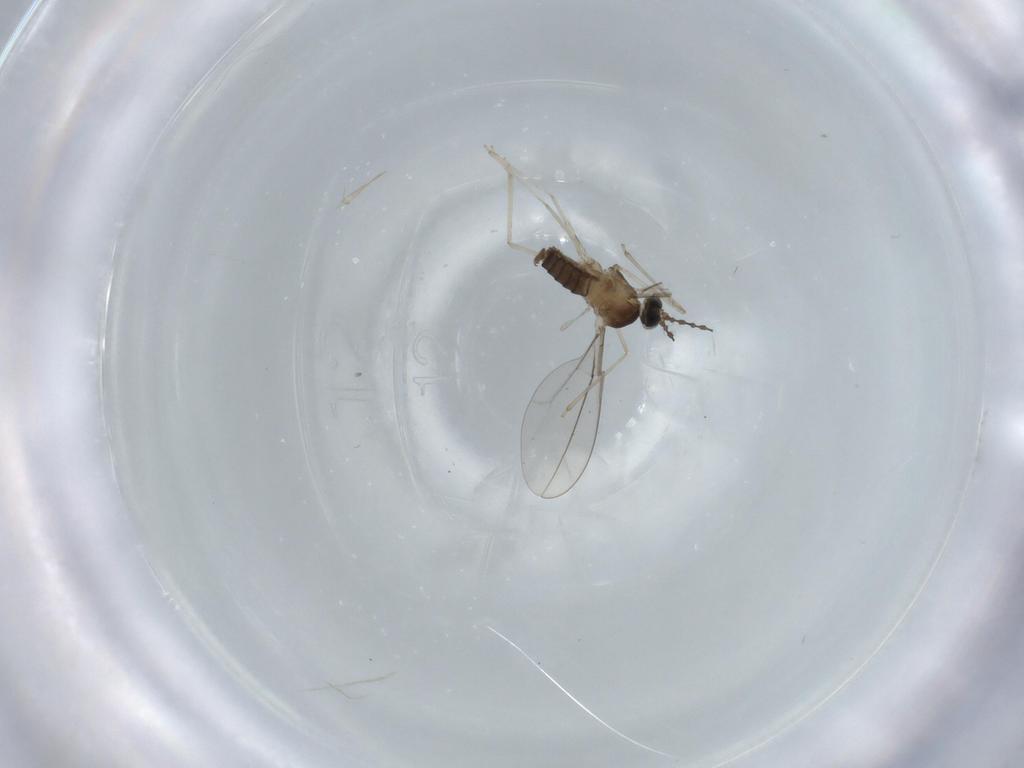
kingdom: Animalia
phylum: Arthropoda
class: Insecta
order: Diptera
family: Cecidomyiidae
